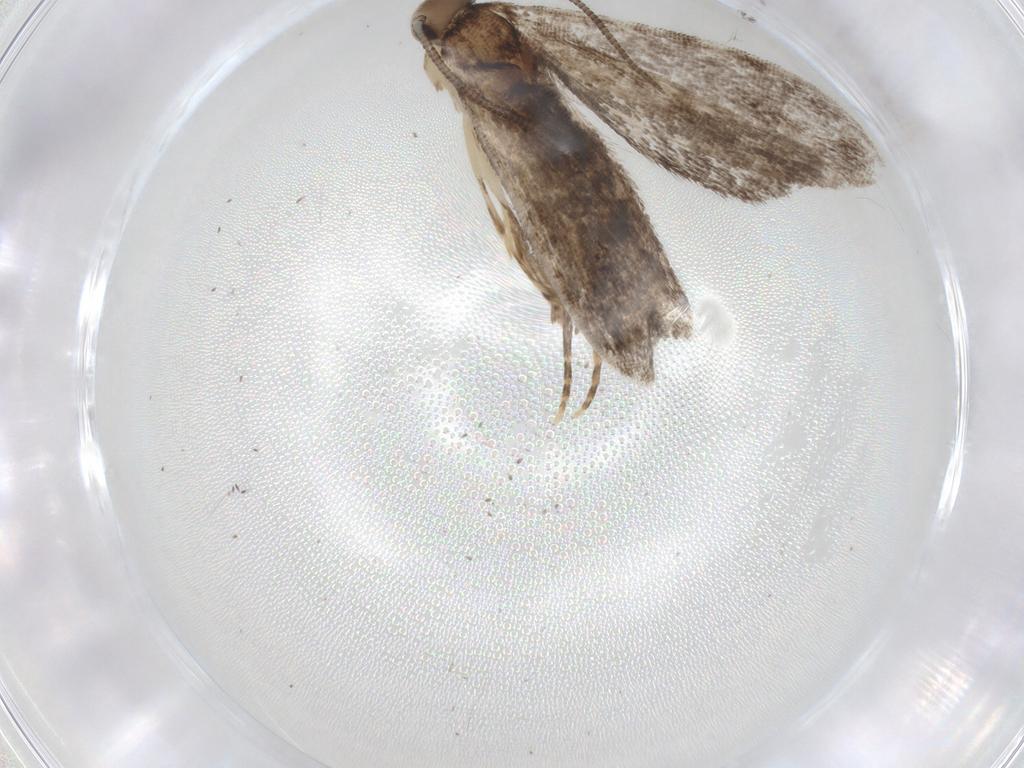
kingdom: Animalia
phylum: Arthropoda
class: Insecta
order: Lepidoptera
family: Dryadaulidae
